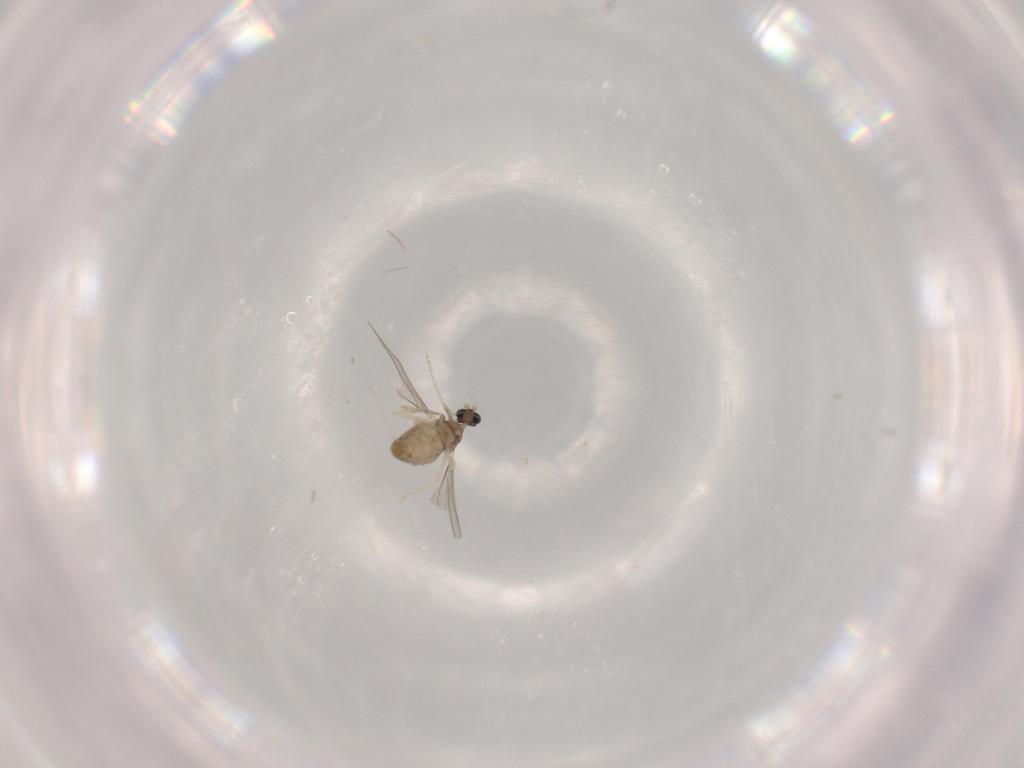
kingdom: Animalia
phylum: Arthropoda
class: Insecta
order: Diptera
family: Cecidomyiidae
